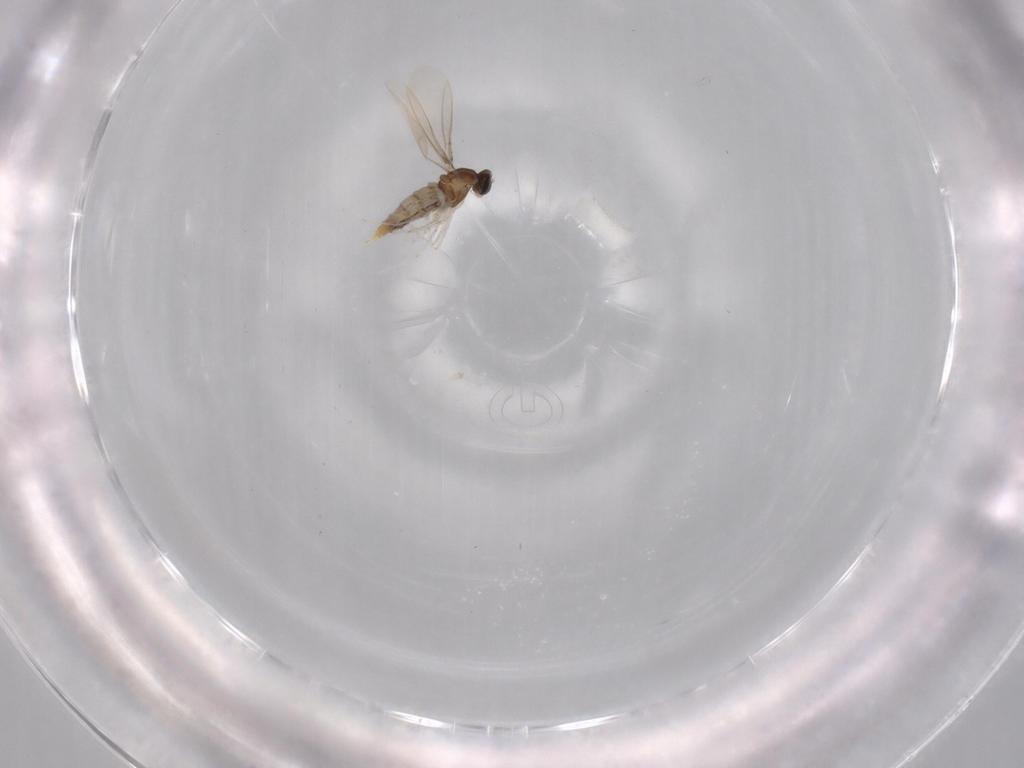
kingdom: Animalia
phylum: Arthropoda
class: Insecta
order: Diptera
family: Cecidomyiidae
